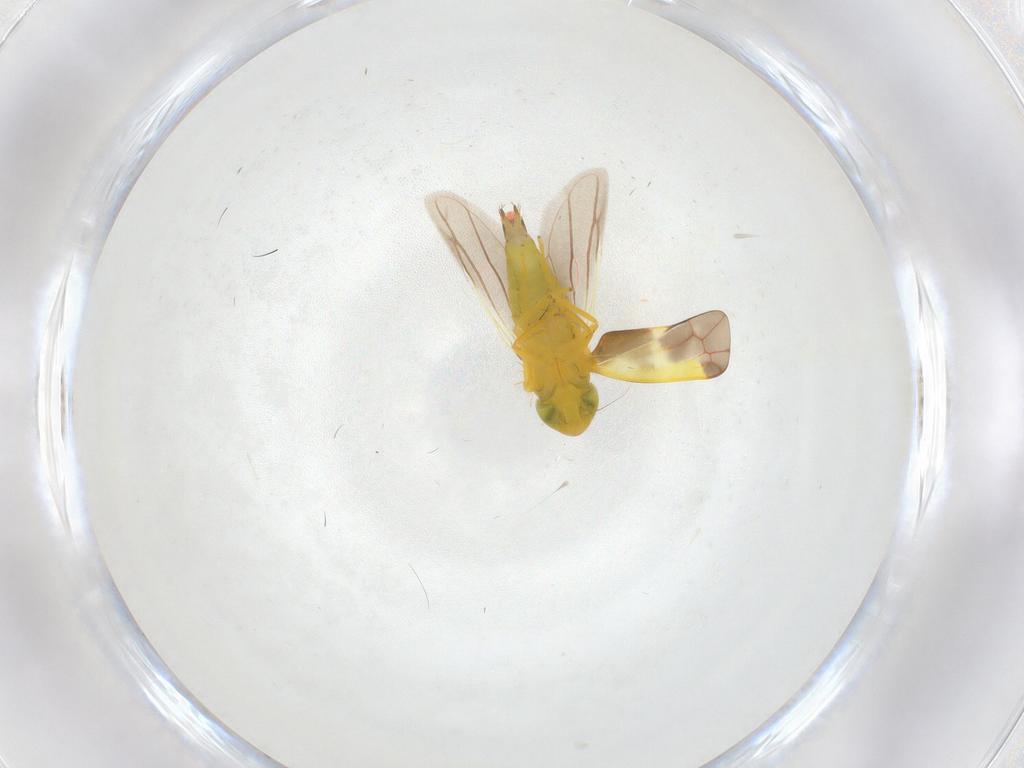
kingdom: Animalia
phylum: Arthropoda
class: Insecta
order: Hemiptera
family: Cicadellidae
